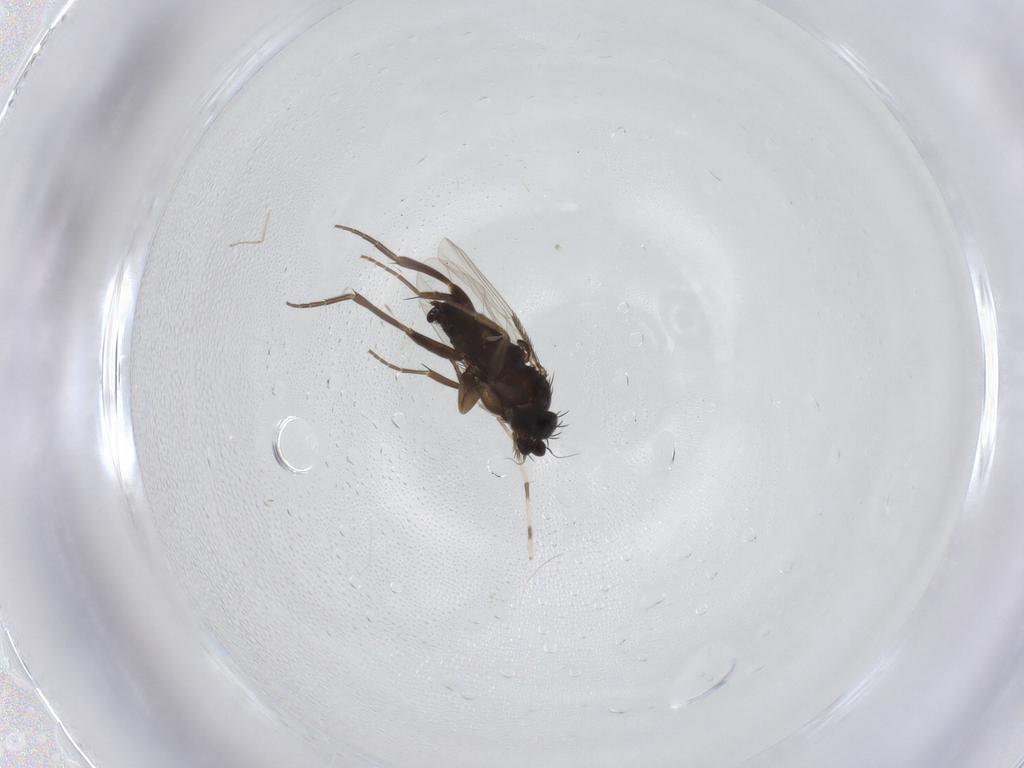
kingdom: Animalia
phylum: Arthropoda
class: Insecta
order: Diptera
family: Chironomidae
